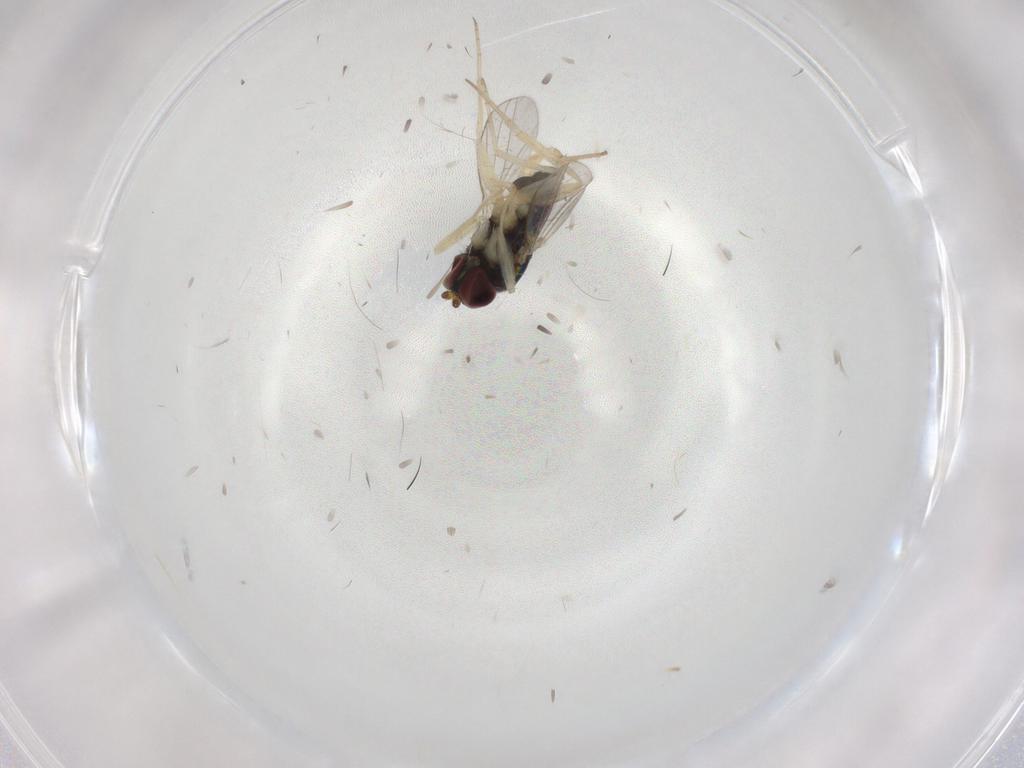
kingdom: Animalia
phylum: Arthropoda
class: Insecta
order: Diptera
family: Dolichopodidae
